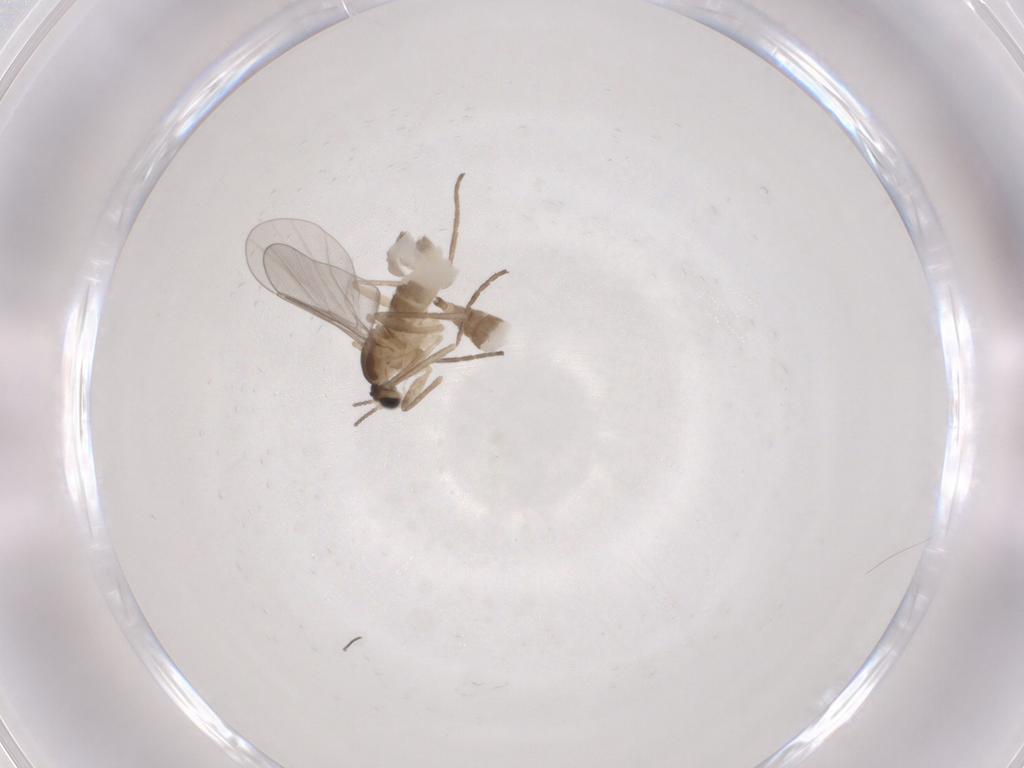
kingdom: Animalia
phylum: Arthropoda
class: Insecta
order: Diptera
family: Cecidomyiidae
